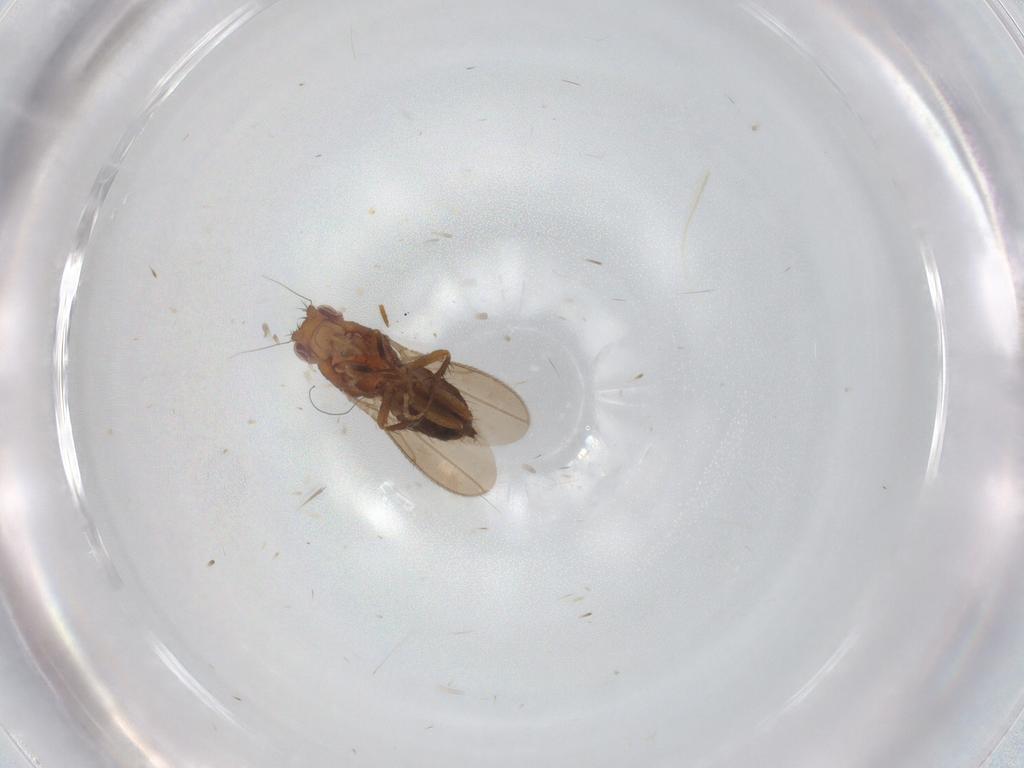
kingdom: Animalia
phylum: Arthropoda
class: Insecta
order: Diptera
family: Sphaeroceridae
